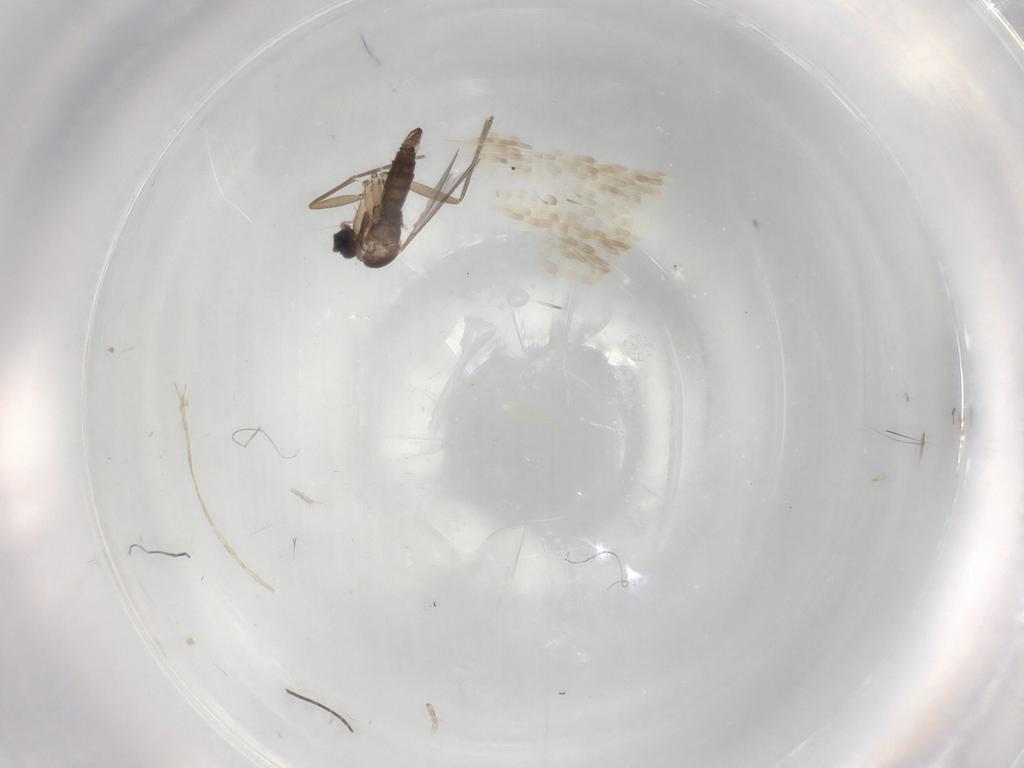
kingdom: Animalia
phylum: Arthropoda
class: Insecta
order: Diptera
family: Sciaridae
